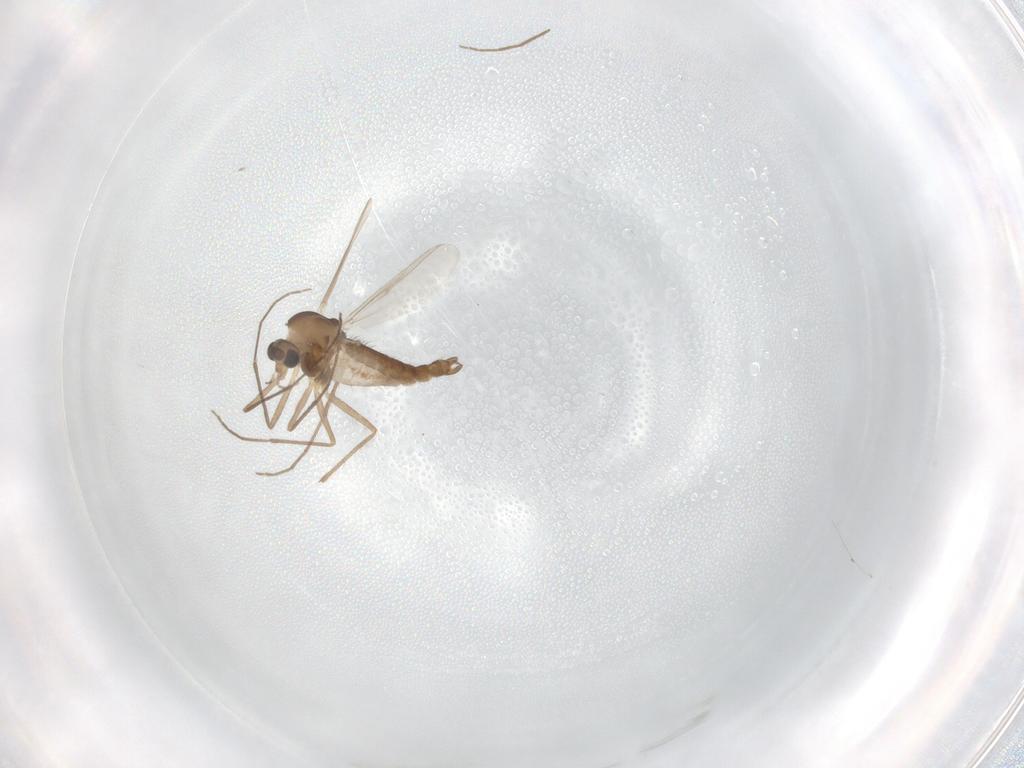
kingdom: Animalia
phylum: Arthropoda
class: Insecta
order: Diptera
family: Chironomidae
